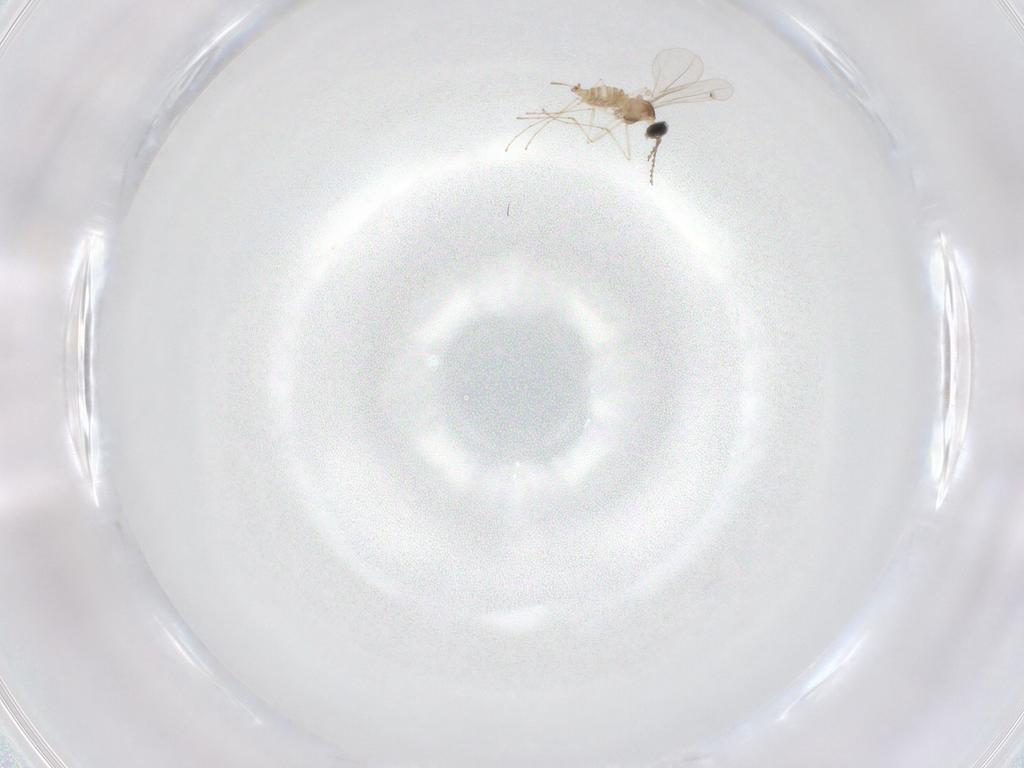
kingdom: Animalia
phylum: Arthropoda
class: Insecta
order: Diptera
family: Cecidomyiidae
